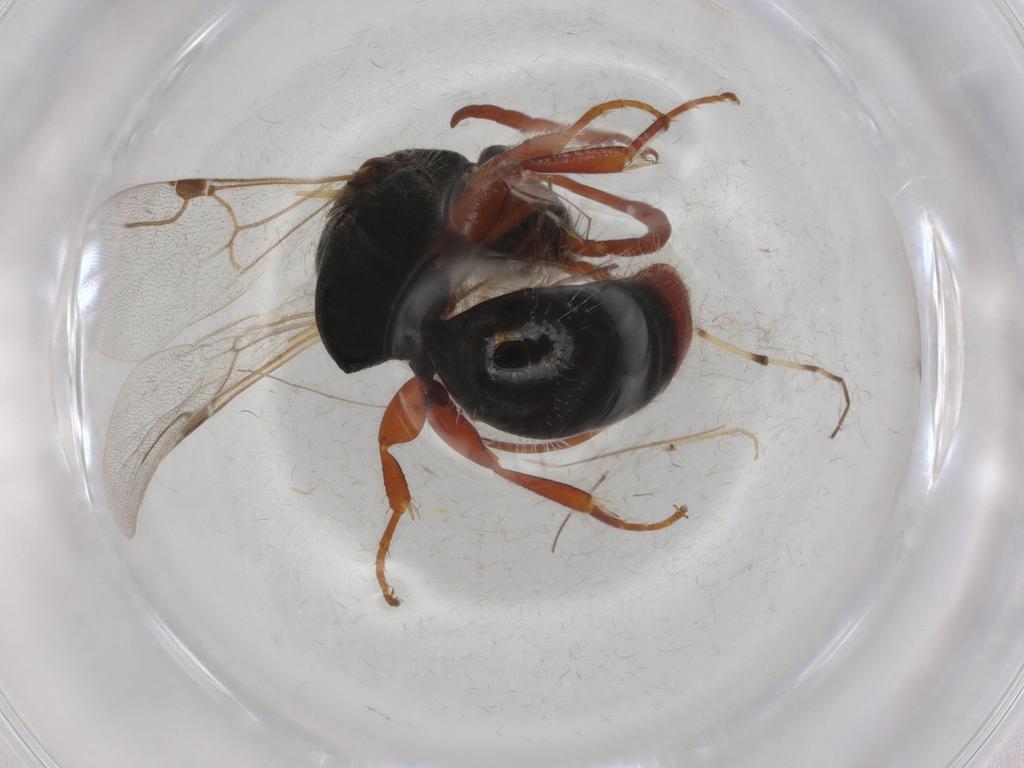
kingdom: Animalia
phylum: Arthropoda
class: Insecta
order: Hymenoptera
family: Bethylidae
